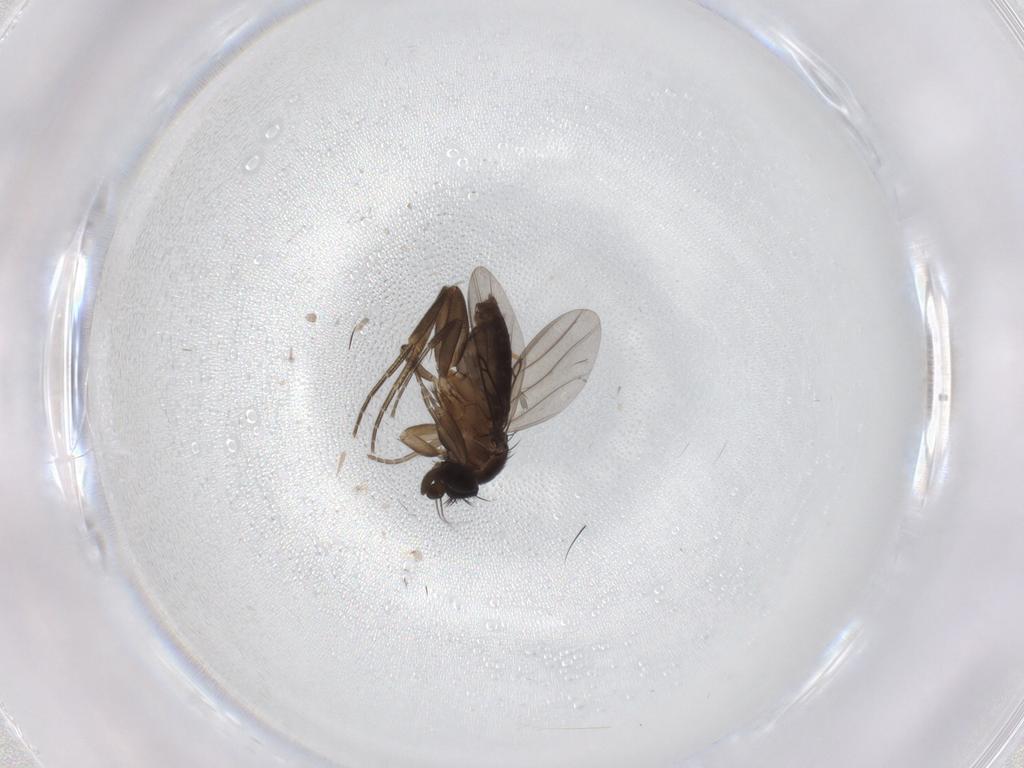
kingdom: Animalia
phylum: Arthropoda
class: Insecta
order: Diptera
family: Phoridae
